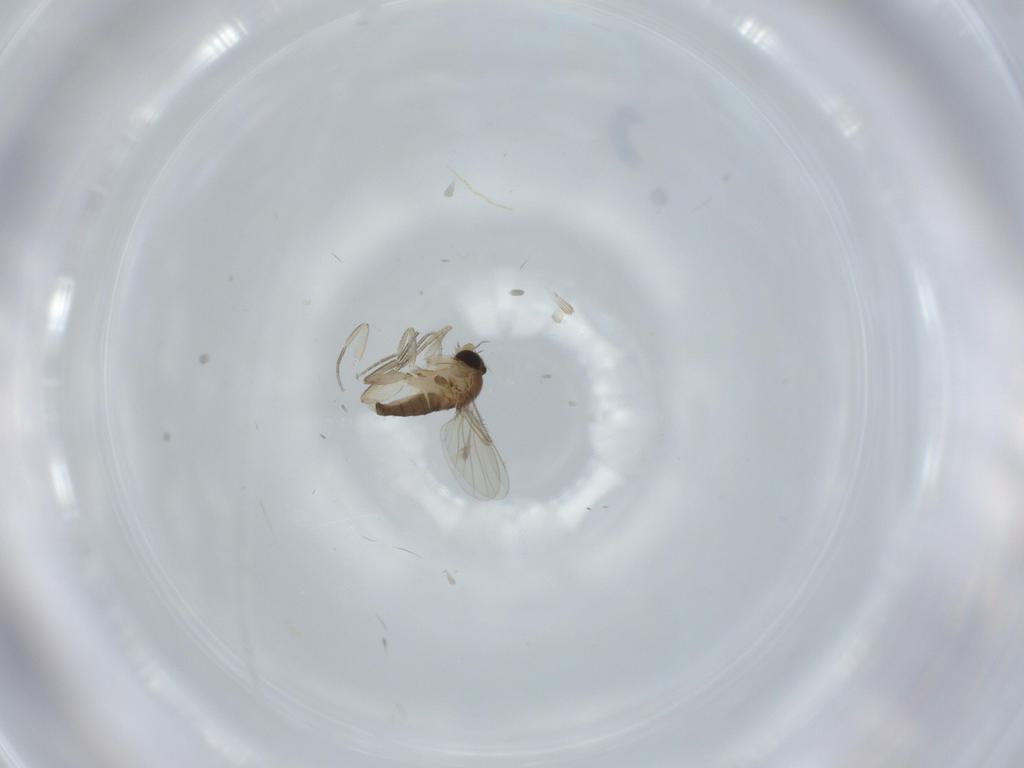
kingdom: Animalia
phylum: Arthropoda
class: Insecta
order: Diptera
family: Phoridae
